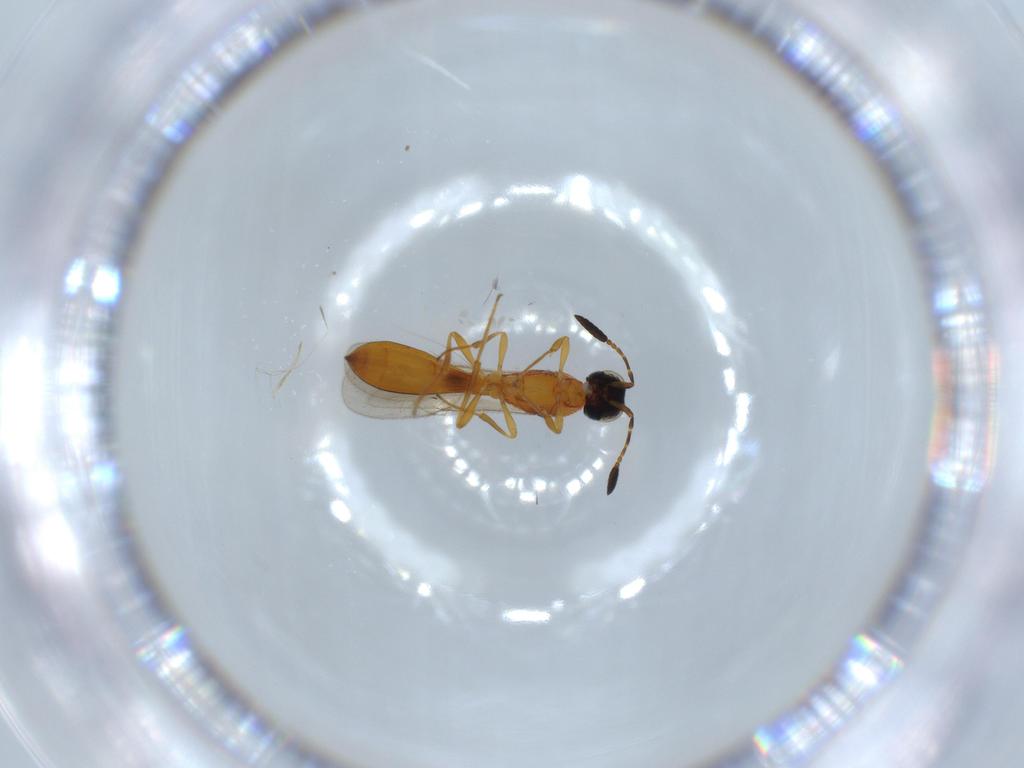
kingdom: Animalia
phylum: Arthropoda
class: Insecta
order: Hymenoptera
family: Scelionidae
